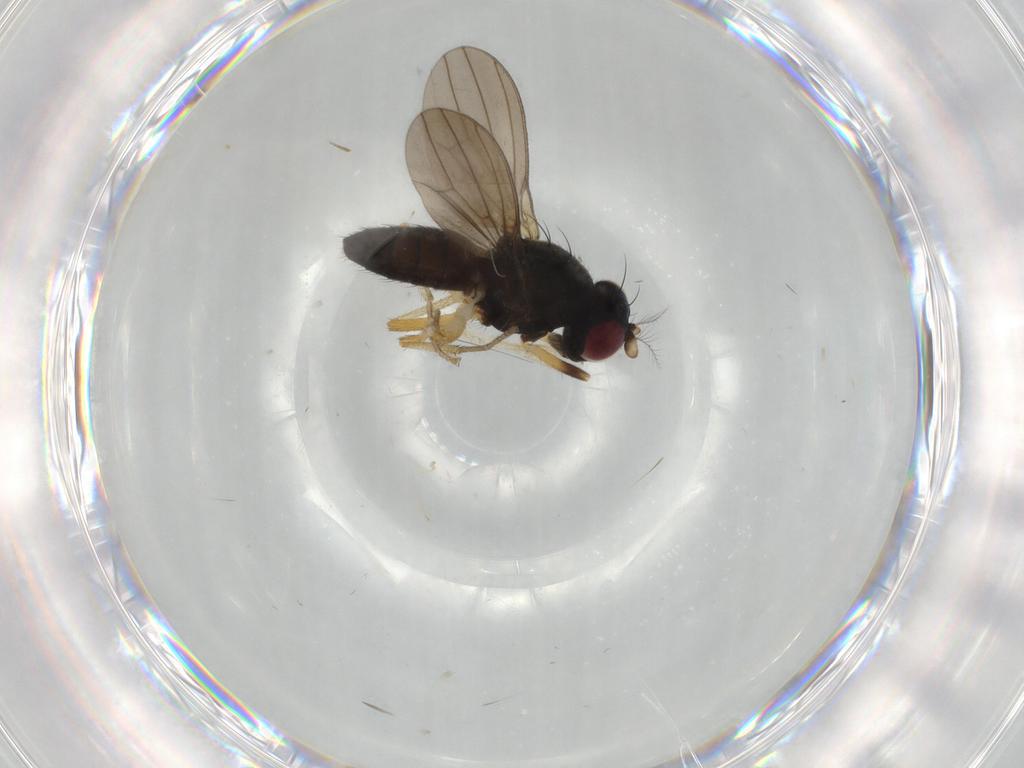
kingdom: Animalia
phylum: Arthropoda
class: Insecta
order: Diptera
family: Lauxaniidae
